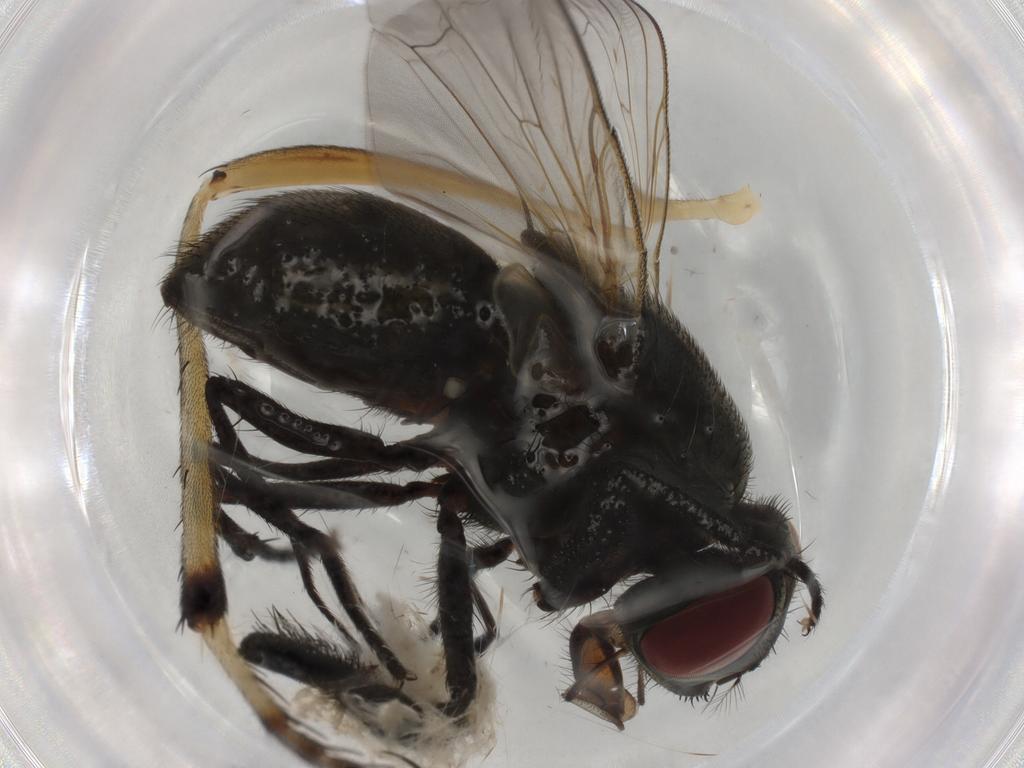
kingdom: Animalia
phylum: Arthropoda
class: Insecta
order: Diptera
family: Asilidae
